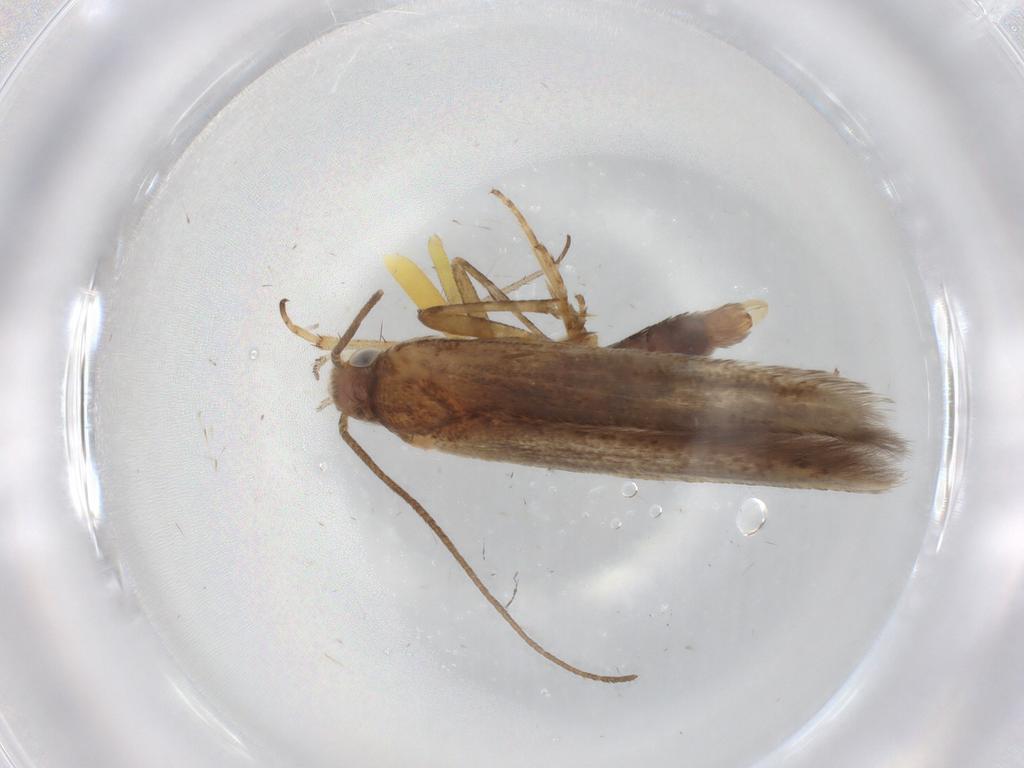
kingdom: Animalia
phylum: Arthropoda
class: Insecta
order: Lepidoptera
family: Batrachedridae
